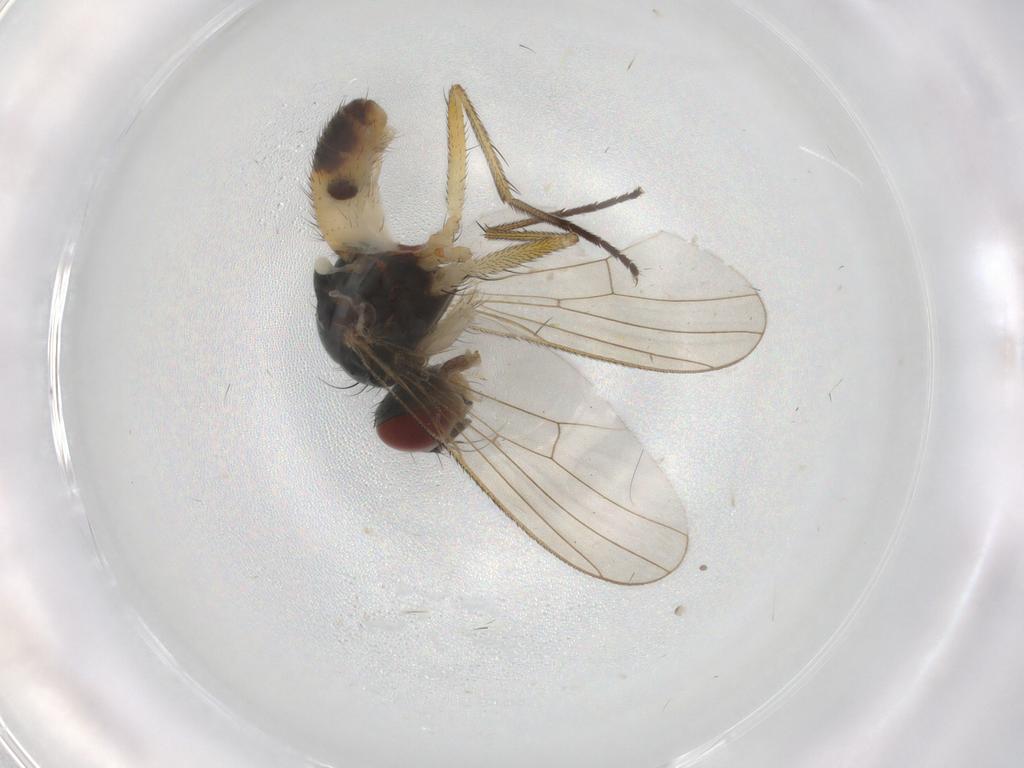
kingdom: Animalia
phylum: Arthropoda
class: Insecta
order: Diptera
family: Muscidae
